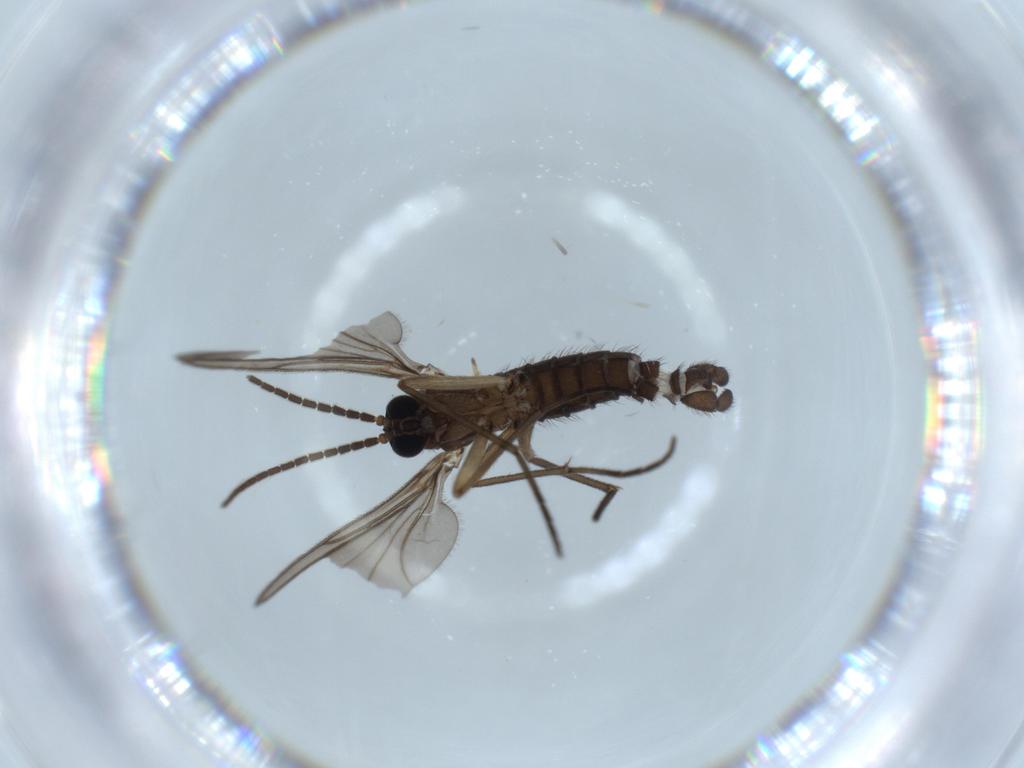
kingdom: Animalia
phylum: Arthropoda
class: Insecta
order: Diptera
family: Sciaridae
